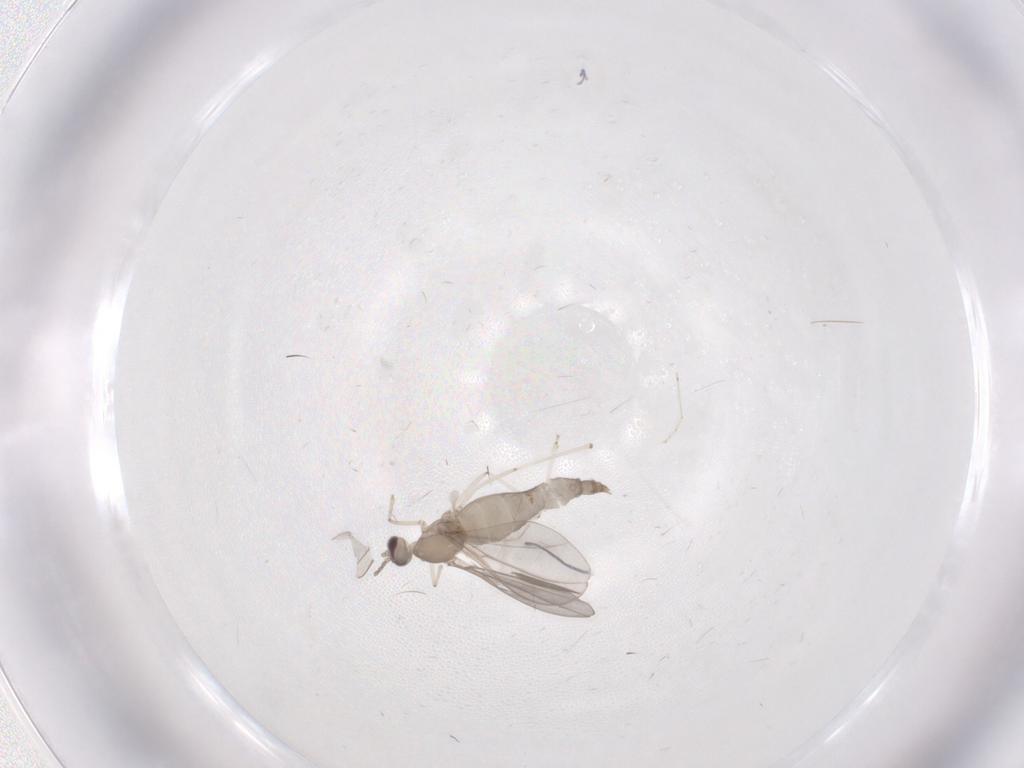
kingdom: Animalia
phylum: Arthropoda
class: Insecta
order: Diptera
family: Cecidomyiidae
